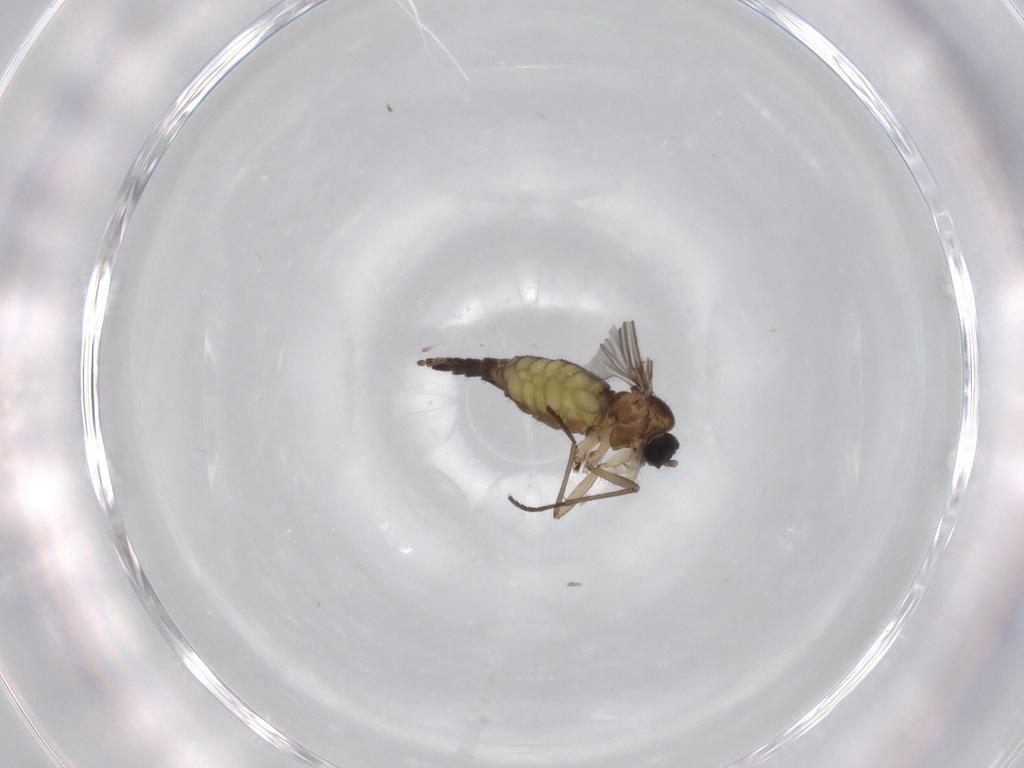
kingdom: Animalia
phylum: Arthropoda
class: Insecta
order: Diptera
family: Sciaridae
